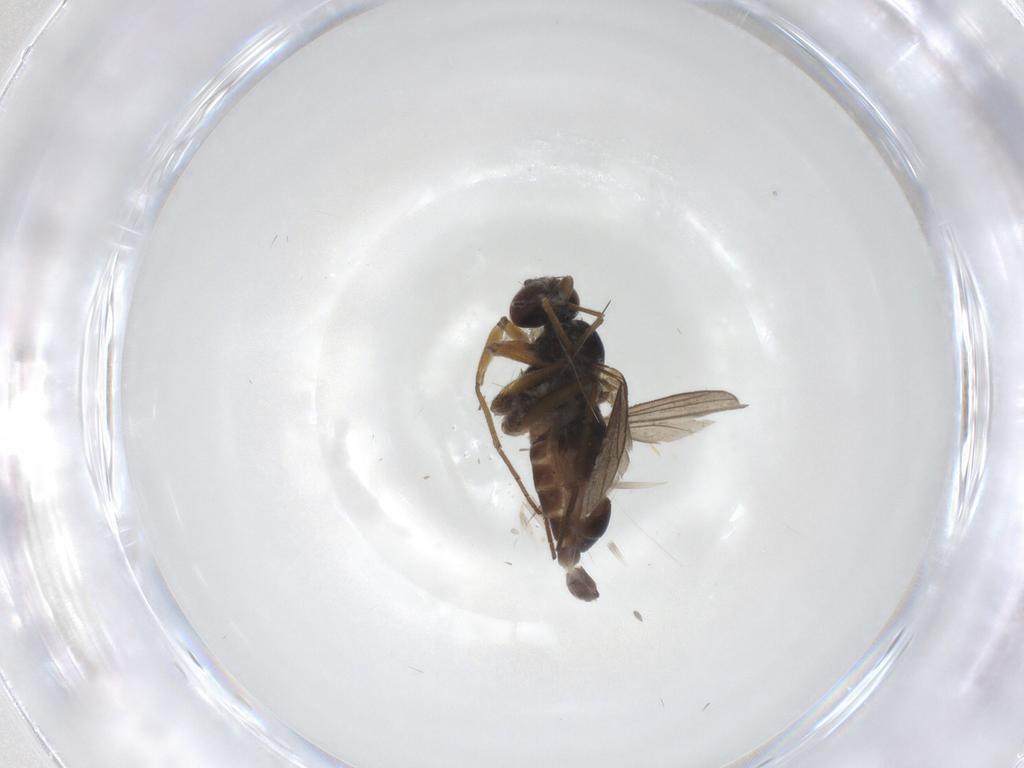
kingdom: Animalia
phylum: Arthropoda
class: Insecta
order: Diptera
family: Chironomidae
